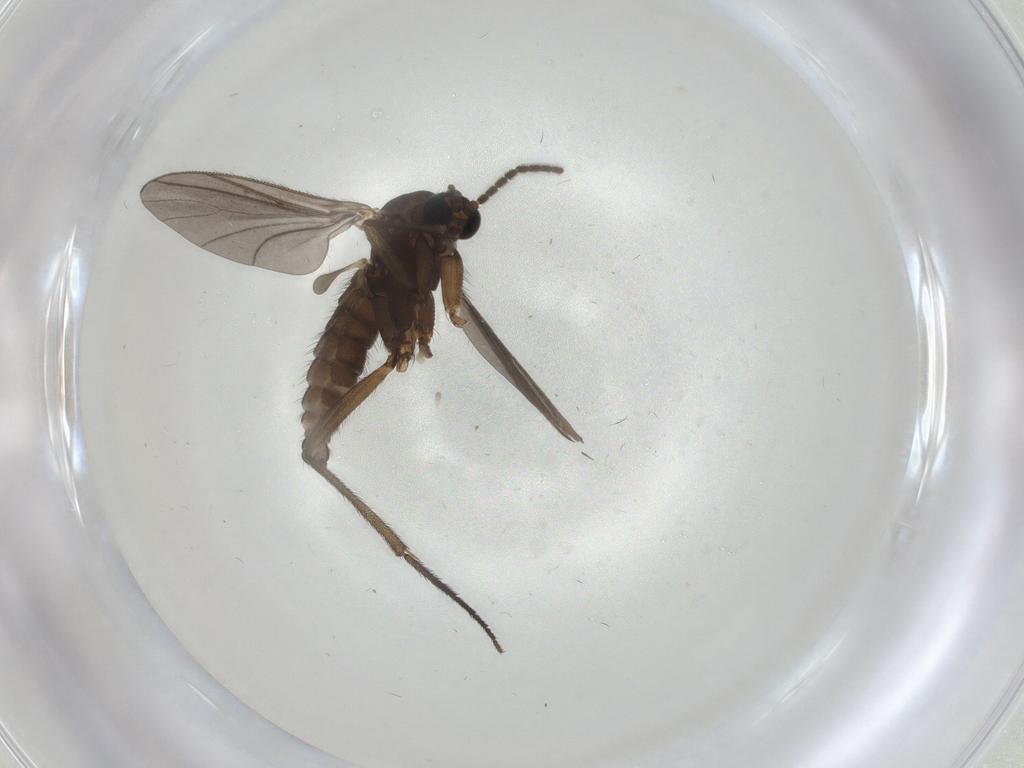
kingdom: Animalia
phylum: Arthropoda
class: Insecta
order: Diptera
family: Sciaridae
